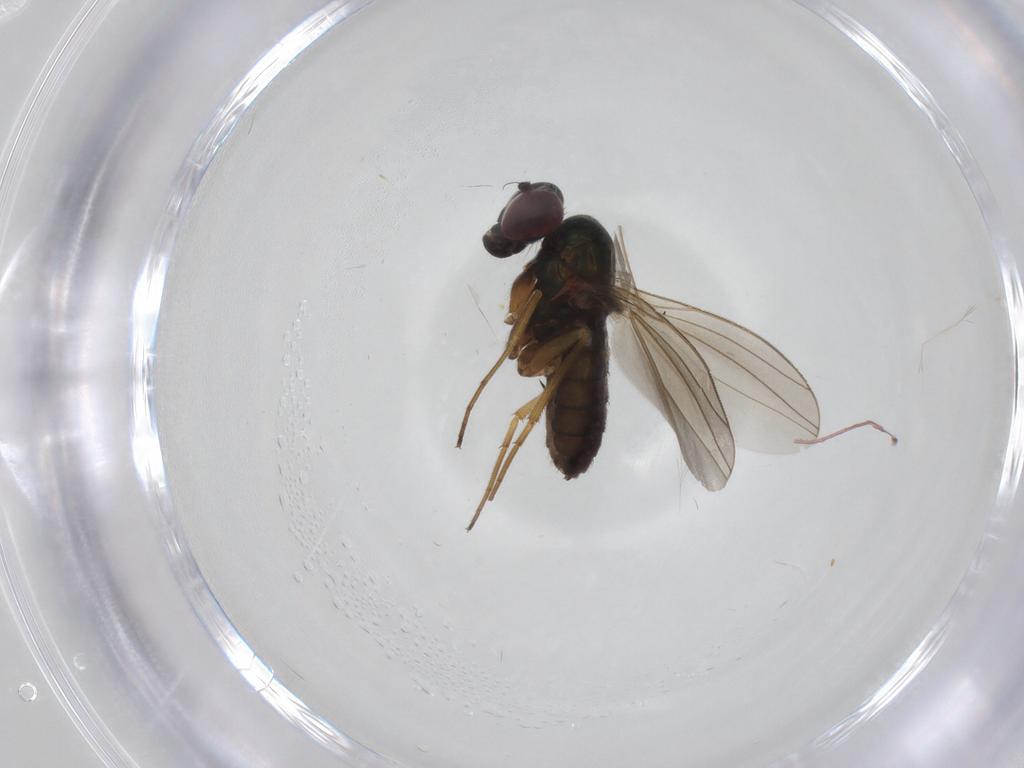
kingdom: Animalia
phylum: Arthropoda
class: Insecta
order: Diptera
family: Dolichopodidae
